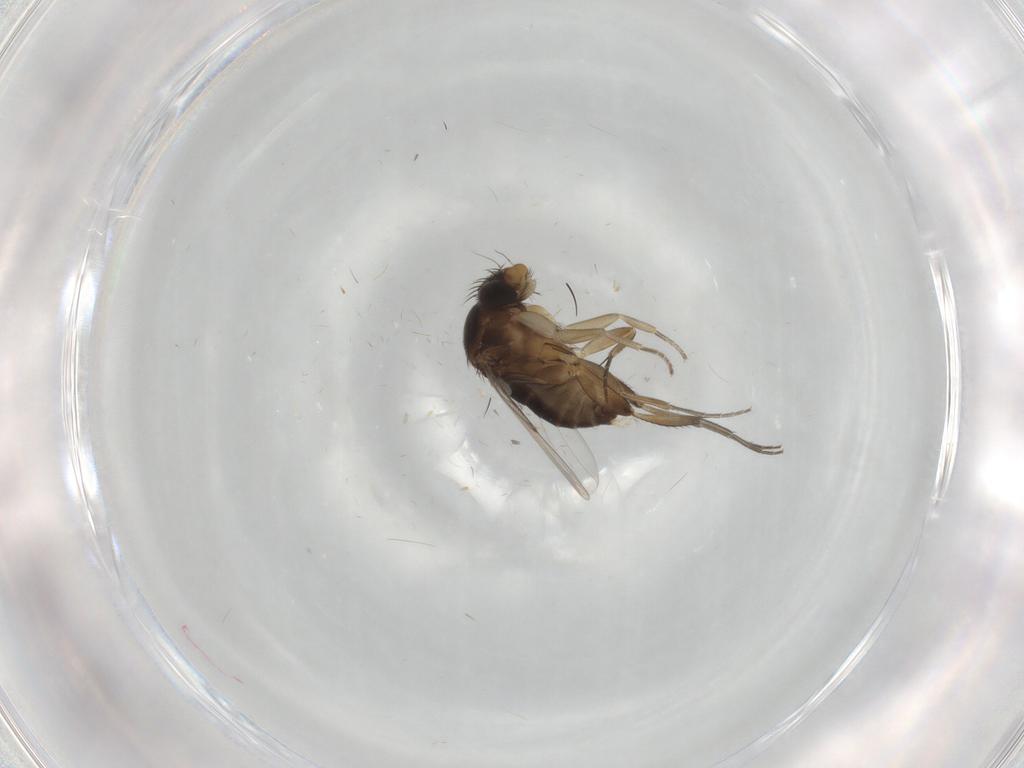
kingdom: Animalia
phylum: Arthropoda
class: Insecta
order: Diptera
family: Phoridae
